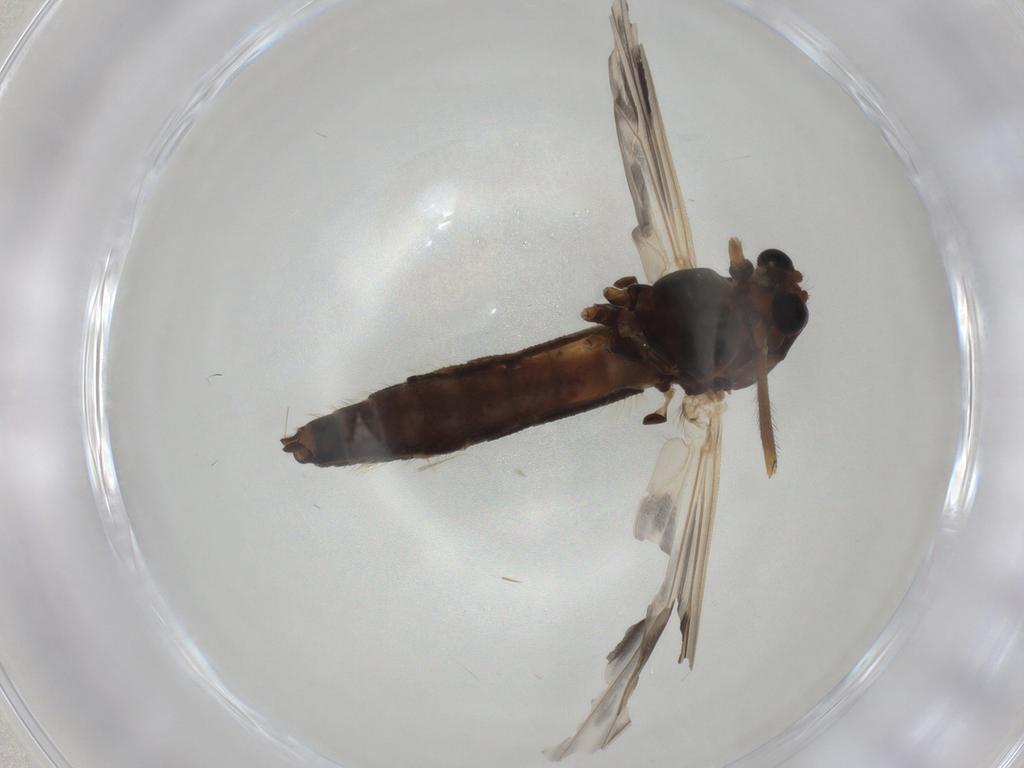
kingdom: Animalia
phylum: Arthropoda
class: Insecta
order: Diptera
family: Chironomidae
